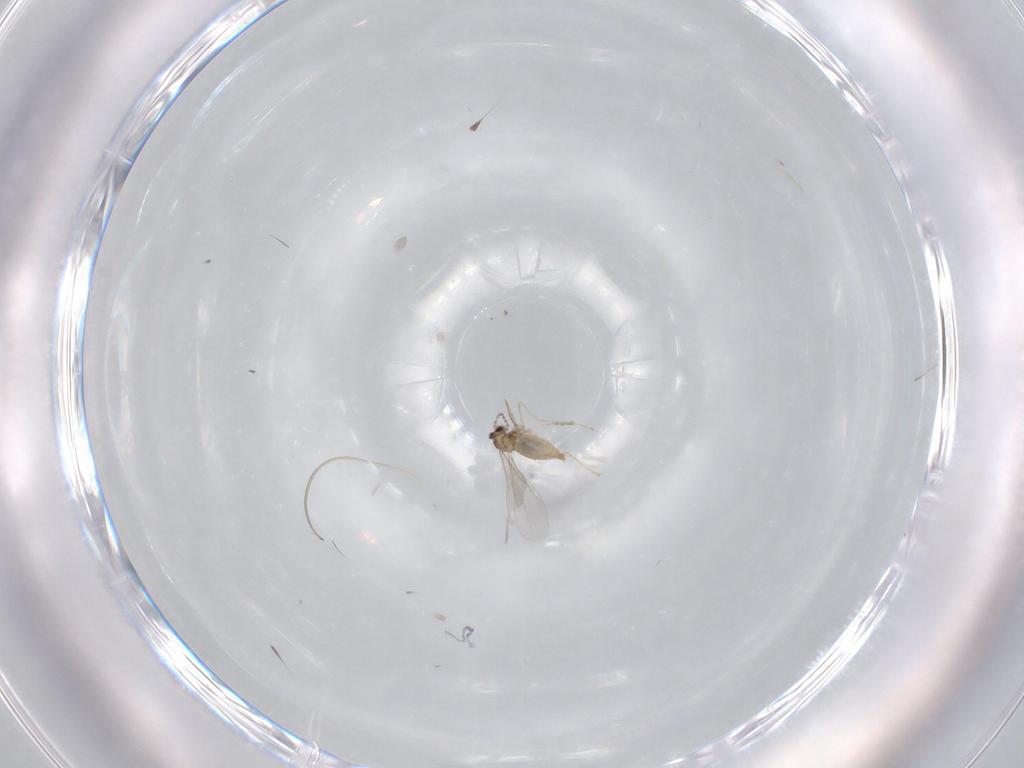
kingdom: Animalia
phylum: Arthropoda
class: Insecta
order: Diptera
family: Cecidomyiidae
